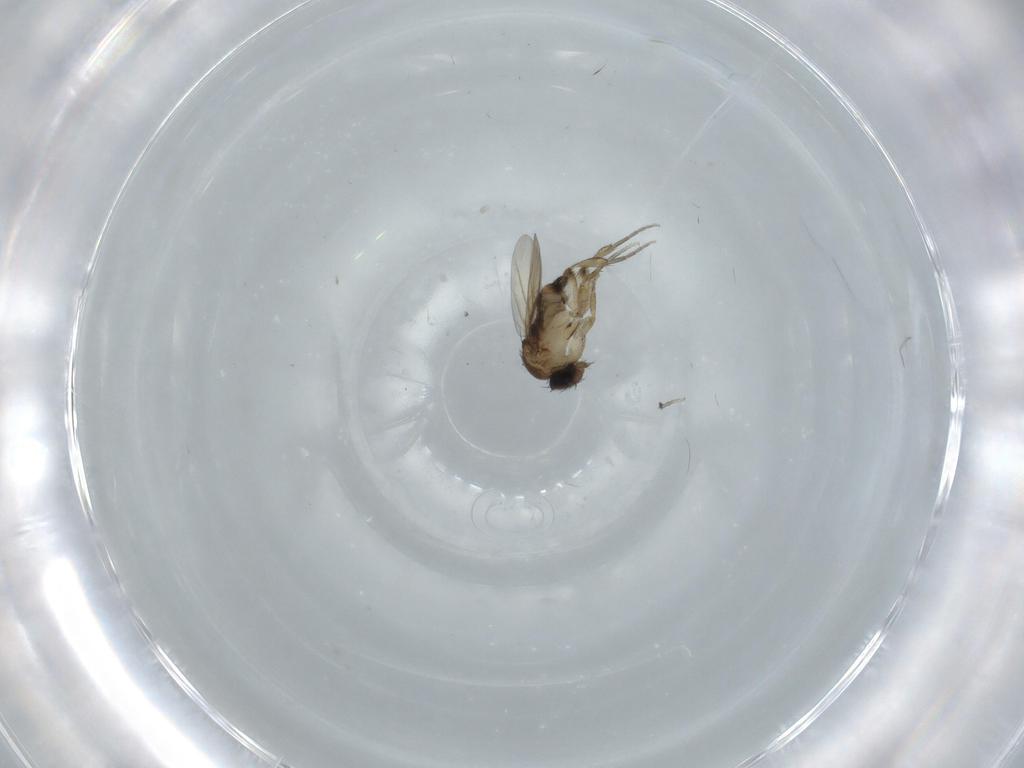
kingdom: Animalia
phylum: Arthropoda
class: Insecta
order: Diptera
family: Phoridae
